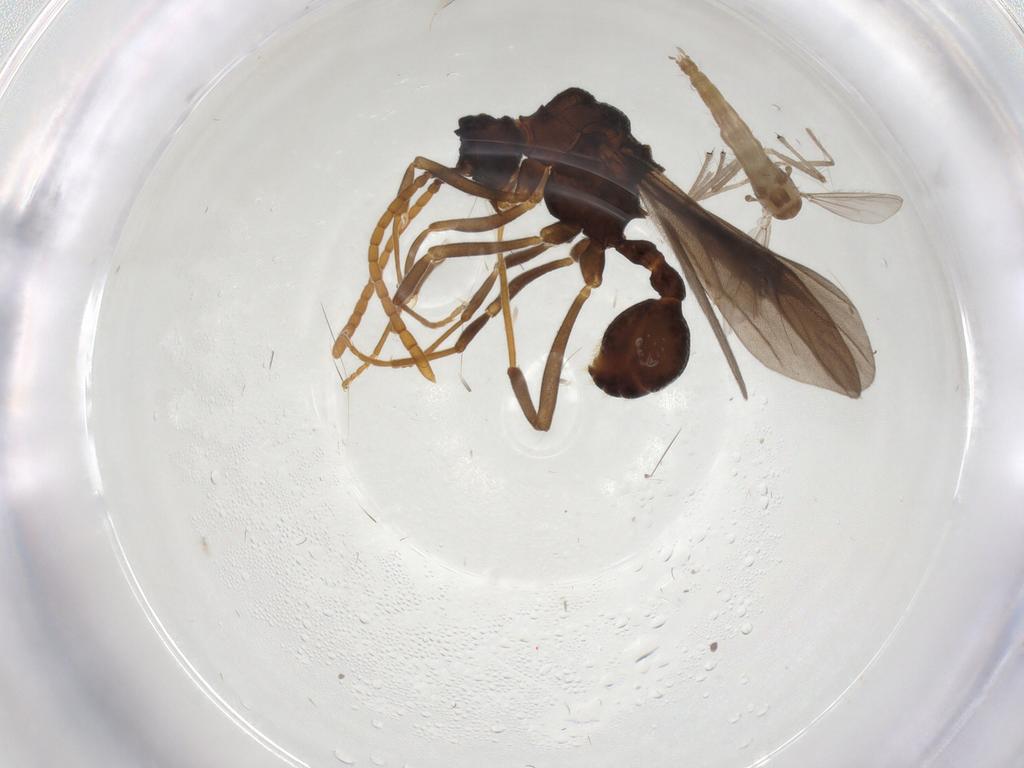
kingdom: Animalia
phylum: Arthropoda
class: Insecta
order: Diptera
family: Chironomidae
